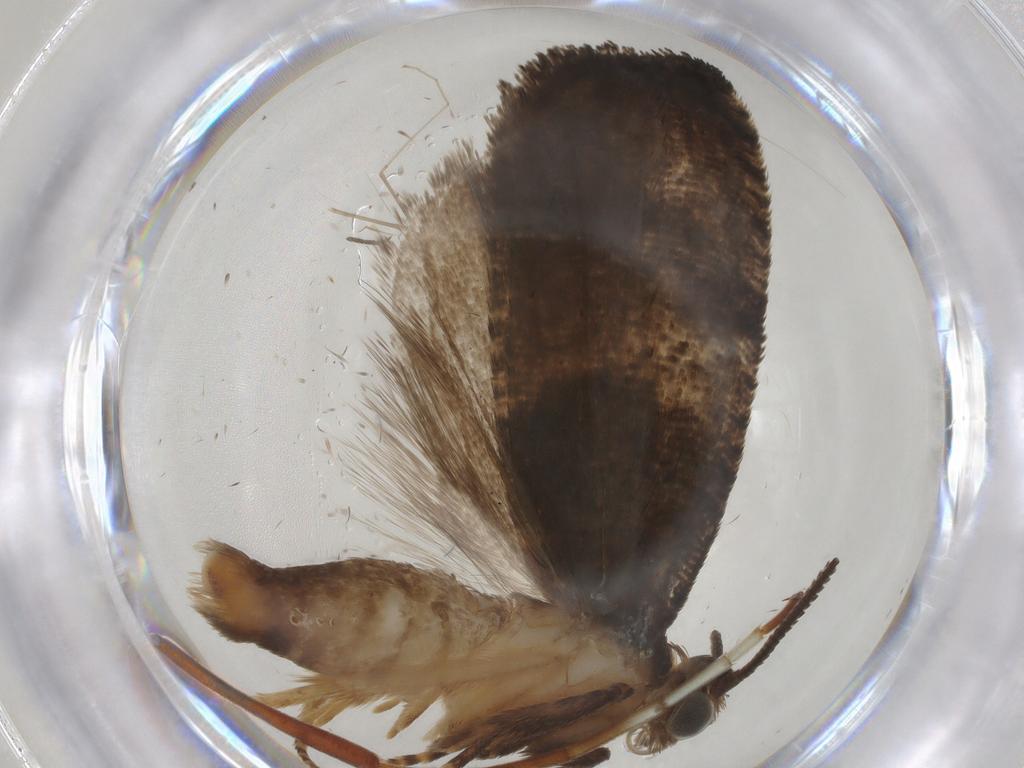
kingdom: Animalia
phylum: Arthropoda
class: Insecta
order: Lepidoptera
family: Tortricidae
